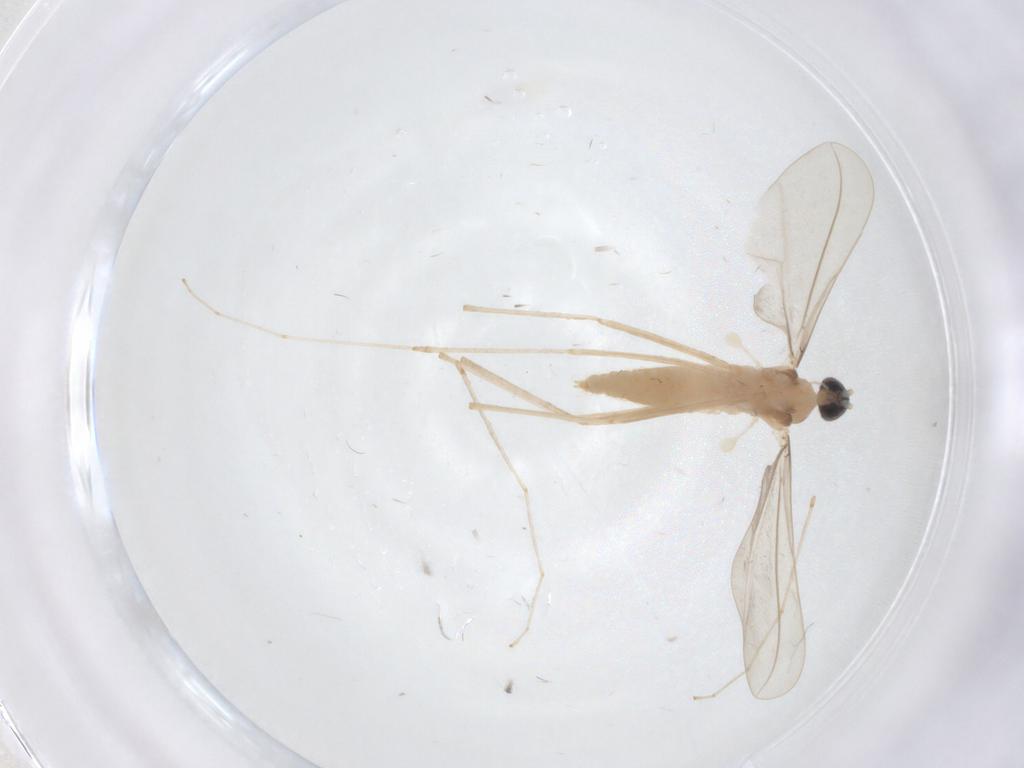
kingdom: Animalia
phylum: Arthropoda
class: Insecta
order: Diptera
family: Cecidomyiidae
